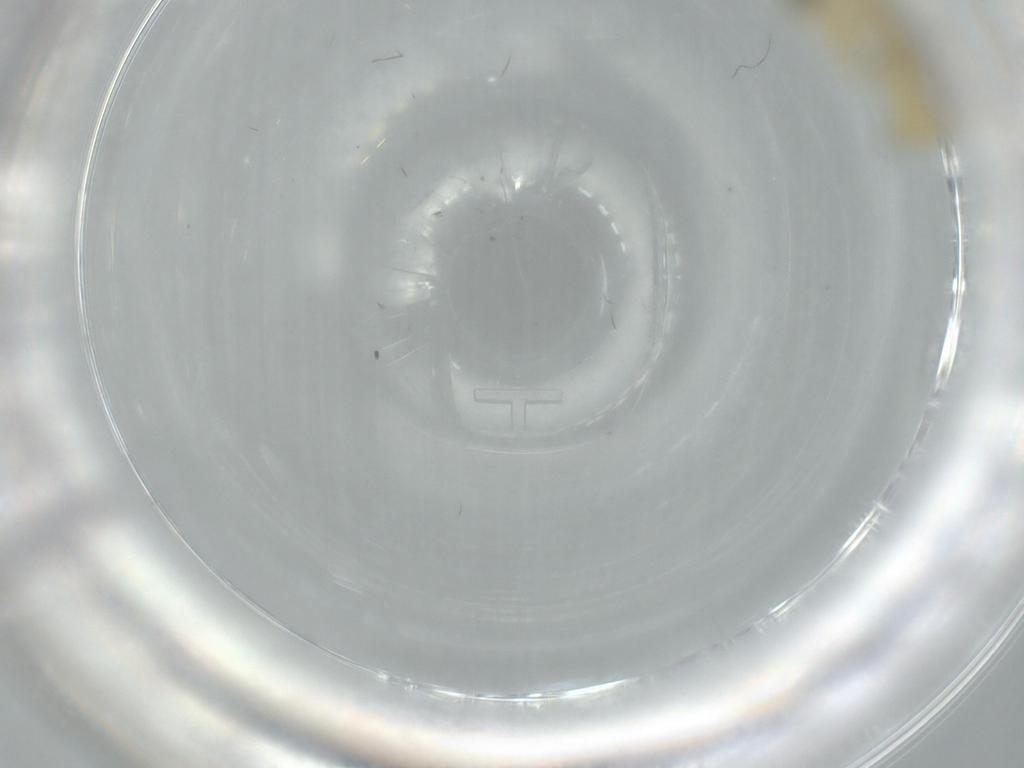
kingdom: Animalia
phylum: Arthropoda
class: Insecta
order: Diptera
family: Chironomidae
